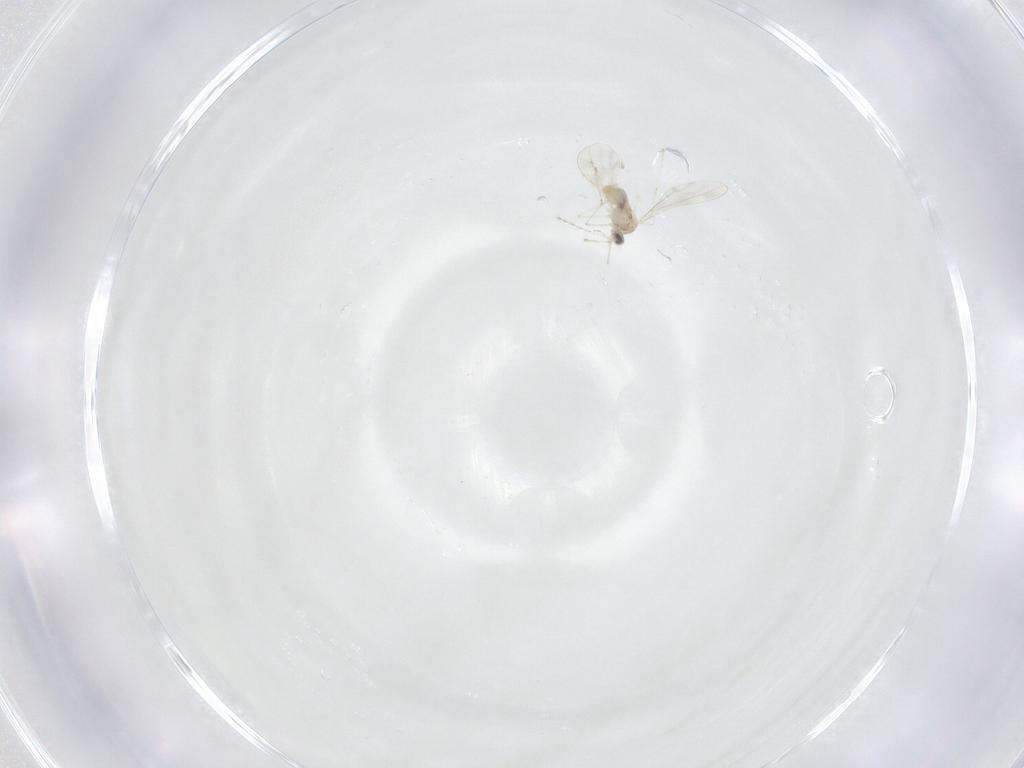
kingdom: Animalia
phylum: Arthropoda
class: Insecta
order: Diptera
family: Cecidomyiidae
